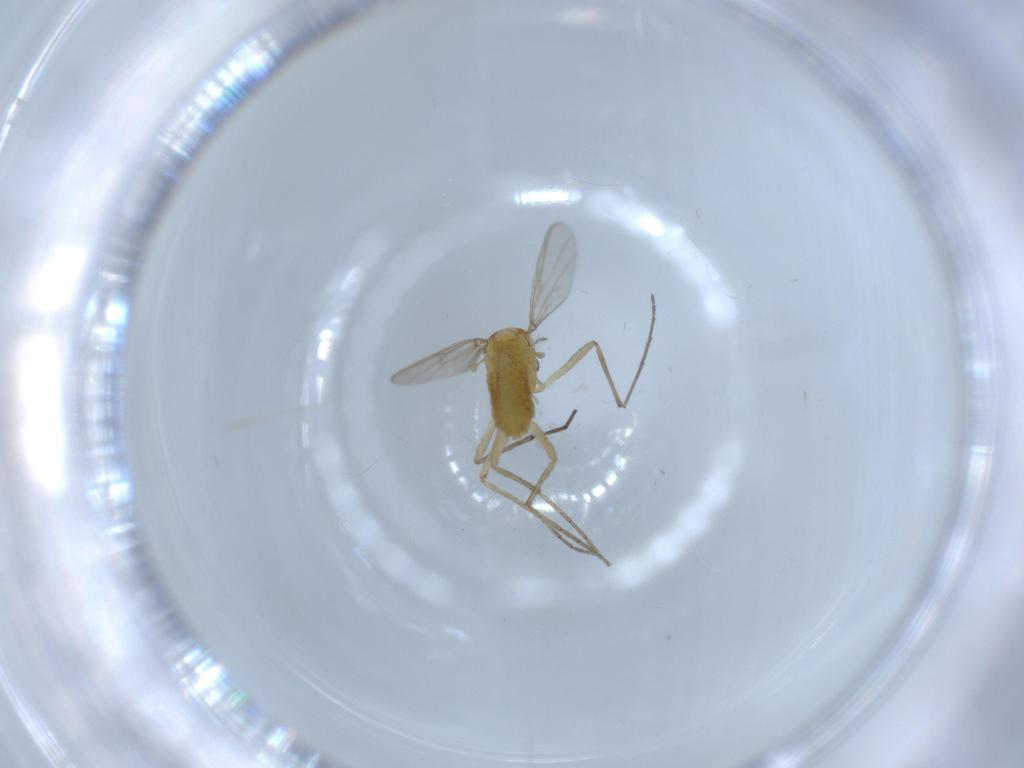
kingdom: Animalia
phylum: Arthropoda
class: Insecta
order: Diptera
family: Chironomidae
